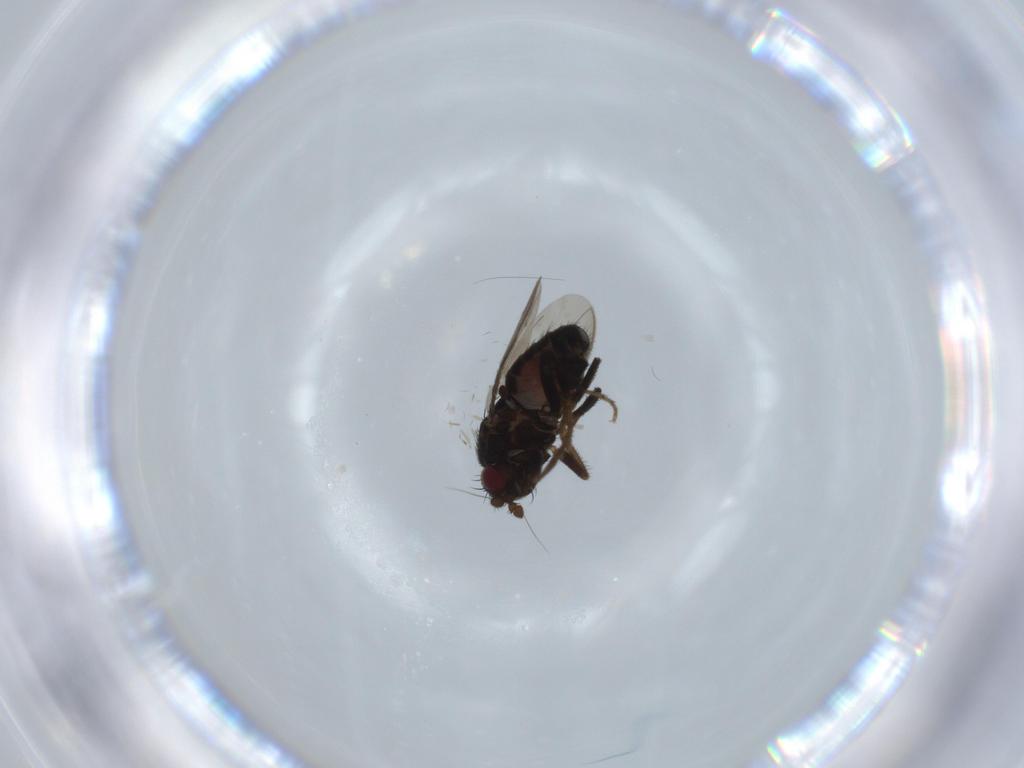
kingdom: Animalia
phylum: Arthropoda
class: Insecta
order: Diptera
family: Sphaeroceridae
